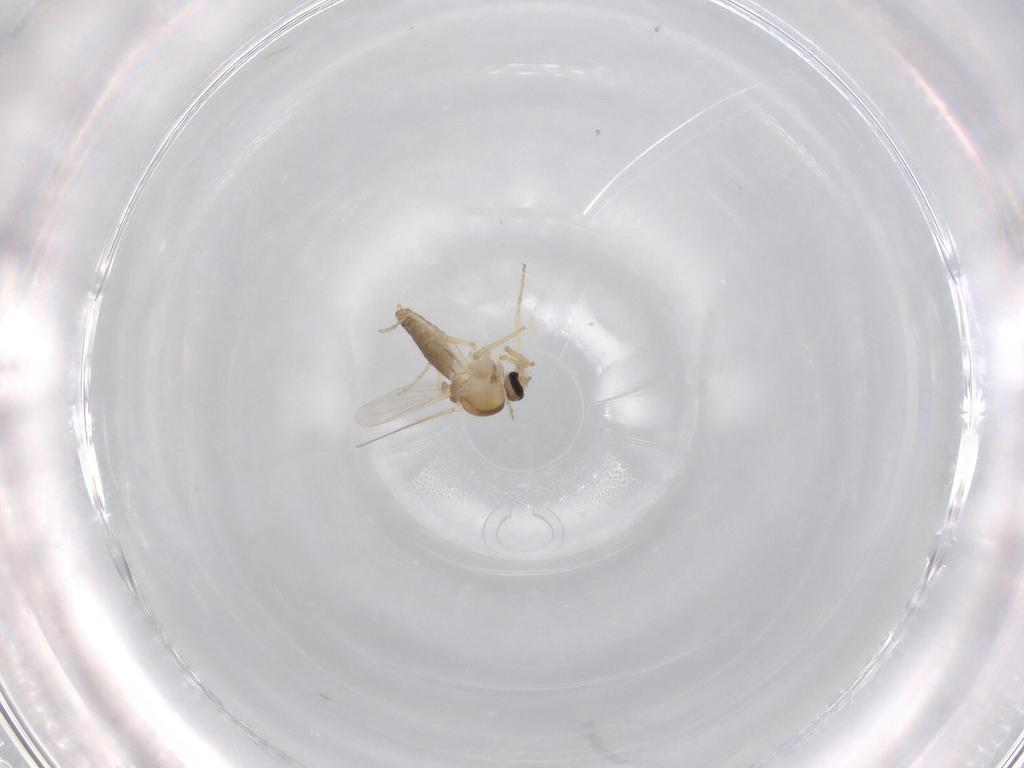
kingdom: Animalia
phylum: Arthropoda
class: Insecta
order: Diptera
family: Ceratopogonidae
